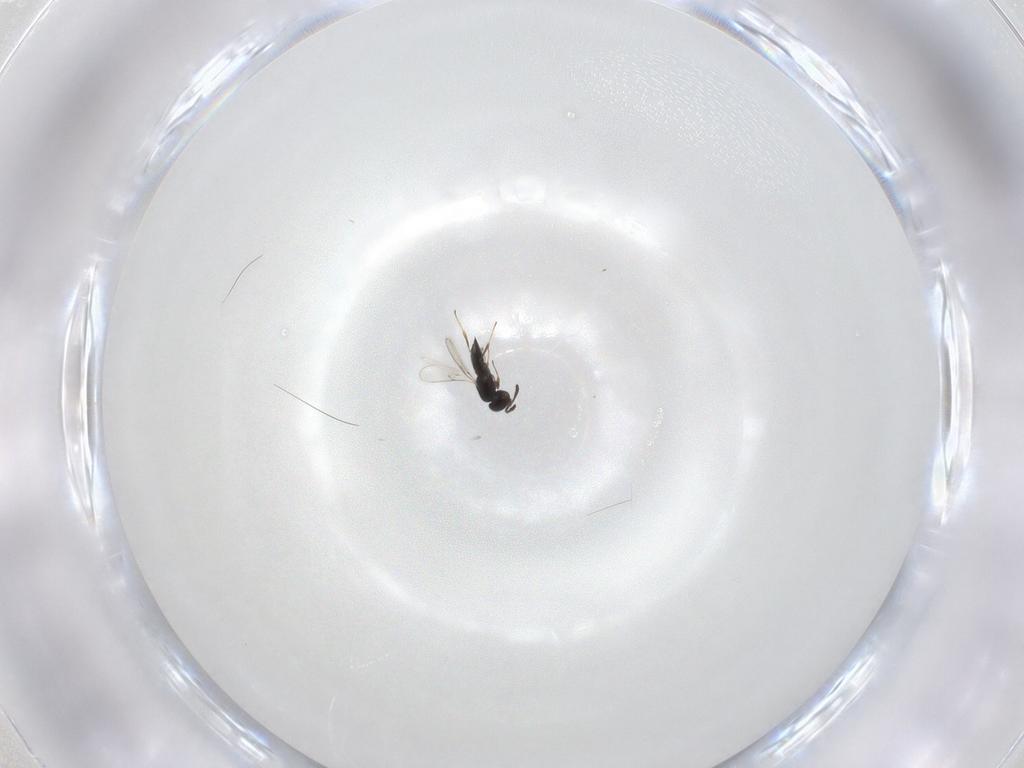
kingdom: Animalia
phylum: Arthropoda
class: Insecta
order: Hymenoptera
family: Scelionidae
